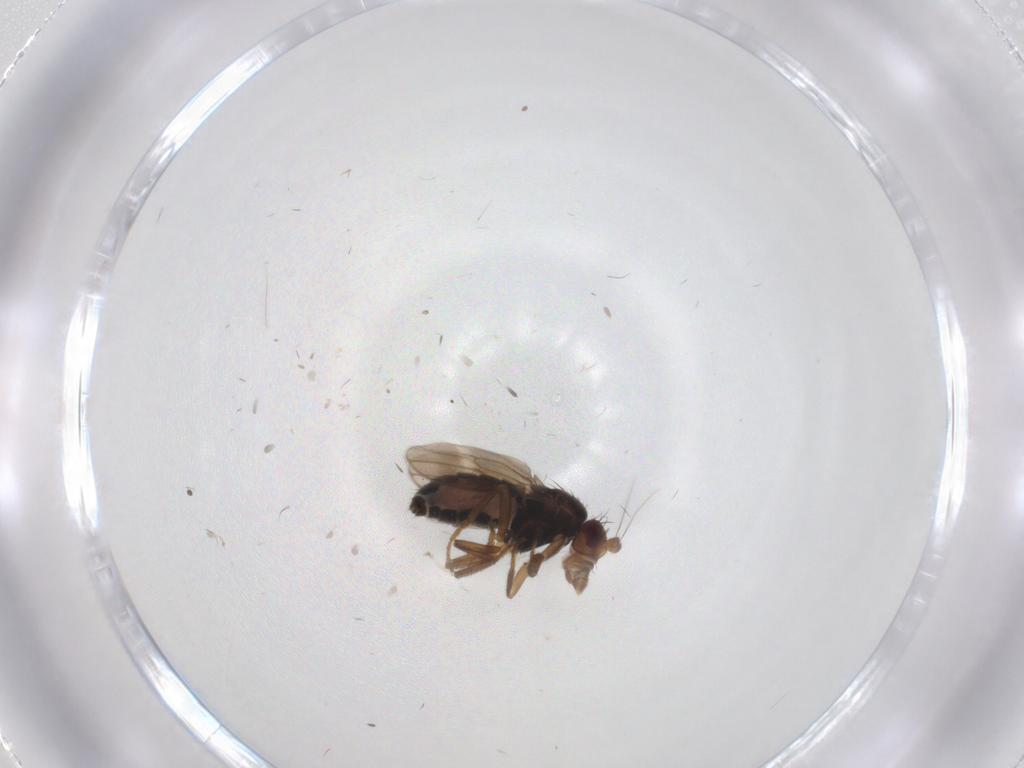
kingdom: Animalia
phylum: Arthropoda
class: Insecta
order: Diptera
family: Sphaeroceridae
